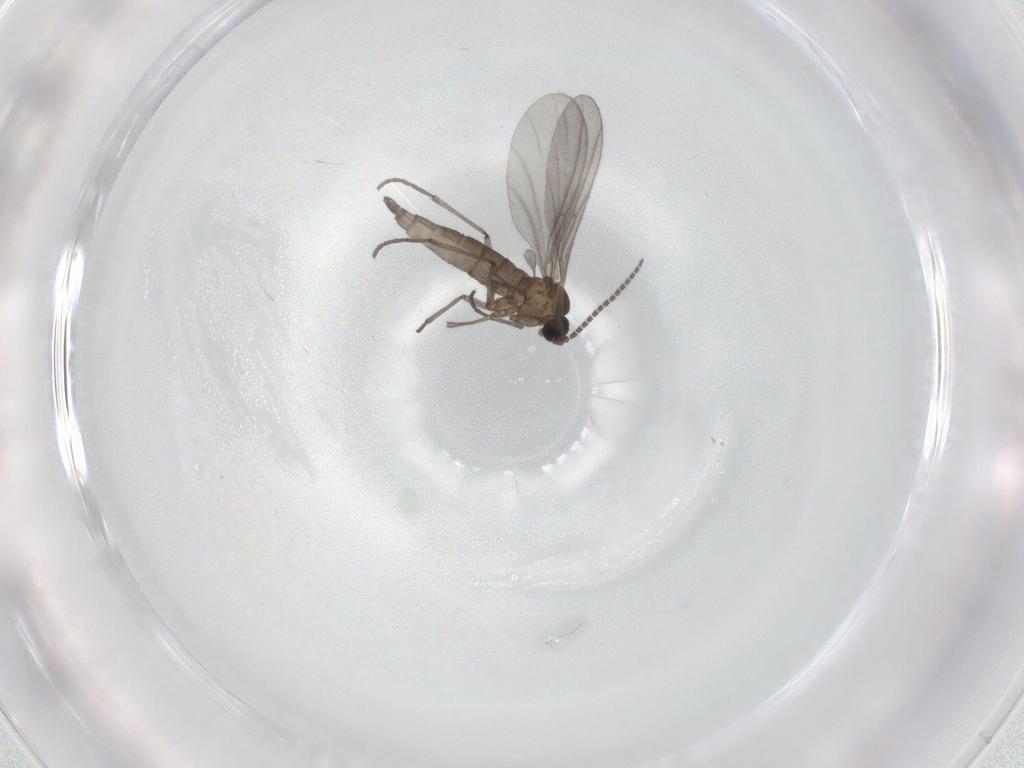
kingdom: Animalia
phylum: Arthropoda
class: Insecta
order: Diptera
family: Sciaridae
